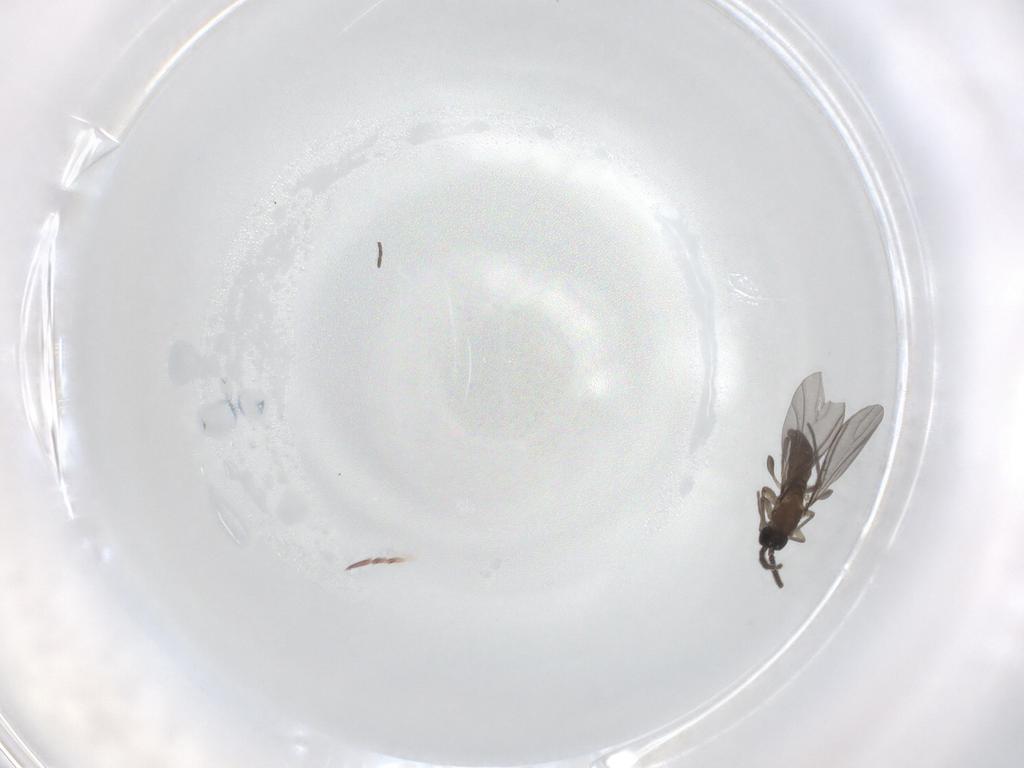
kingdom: Animalia
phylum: Arthropoda
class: Insecta
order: Diptera
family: Sciaridae
